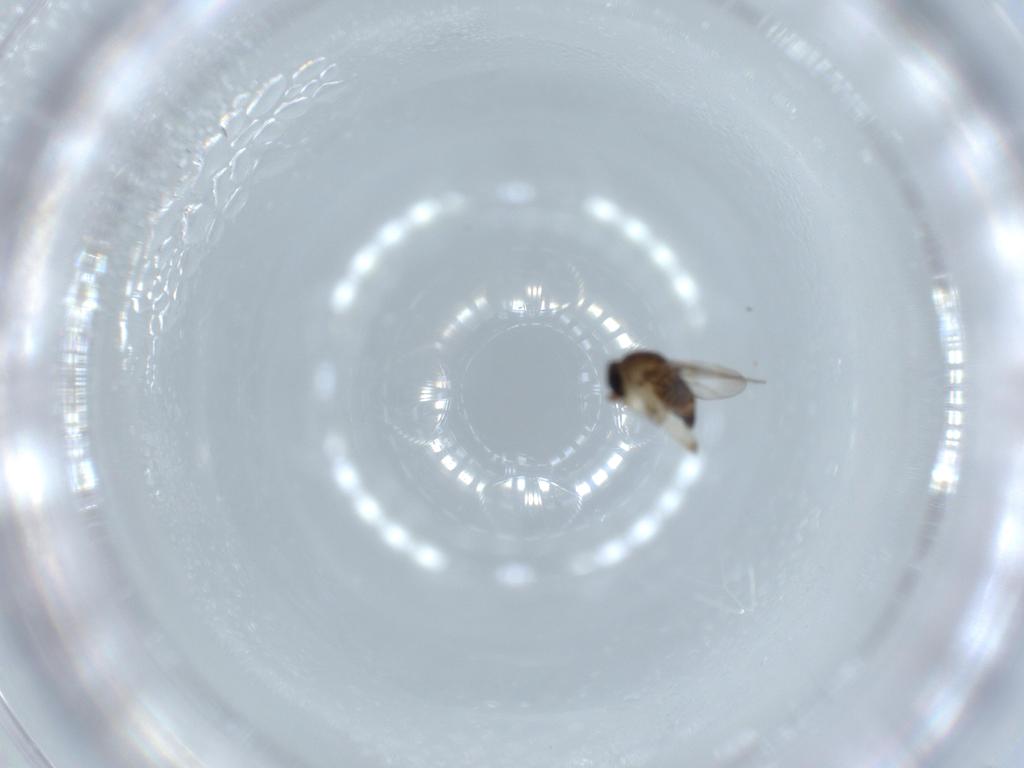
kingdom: Animalia
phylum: Arthropoda
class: Insecta
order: Diptera
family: Phoridae
